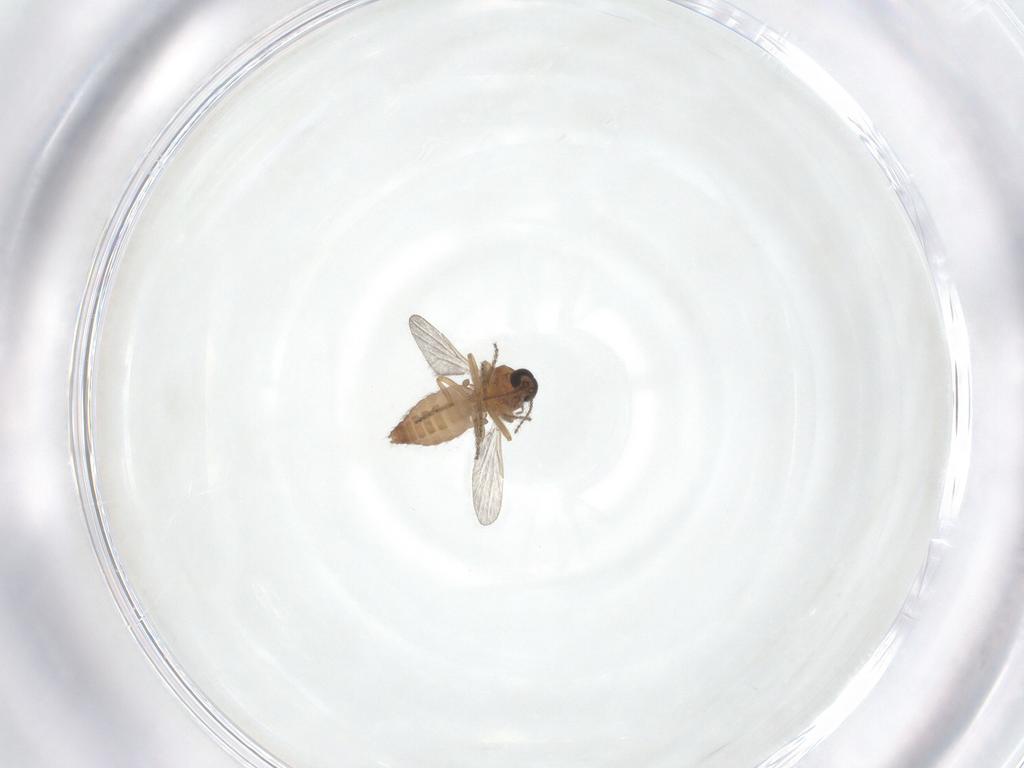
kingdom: Animalia
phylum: Arthropoda
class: Insecta
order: Diptera
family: Ceratopogonidae
